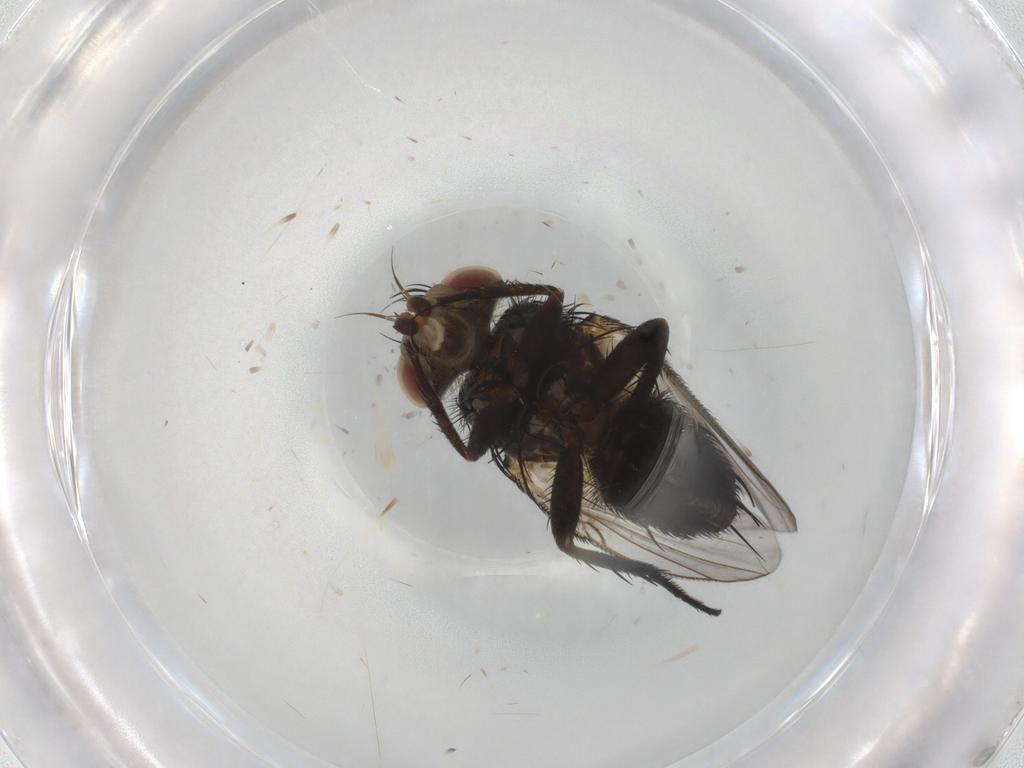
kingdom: Animalia
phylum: Arthropoda
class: Insecta
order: Diptera
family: Tachinidae
